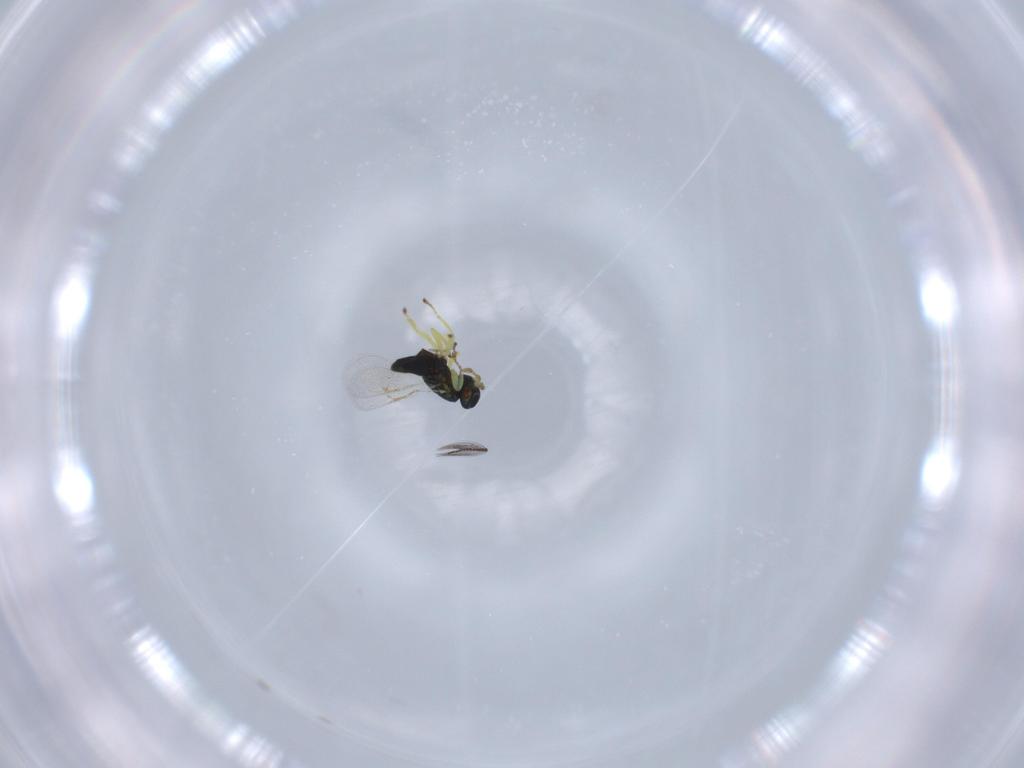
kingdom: Animalia
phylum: Arthropoda
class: Insecta
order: Hymenoptera
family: Aphelinidae
